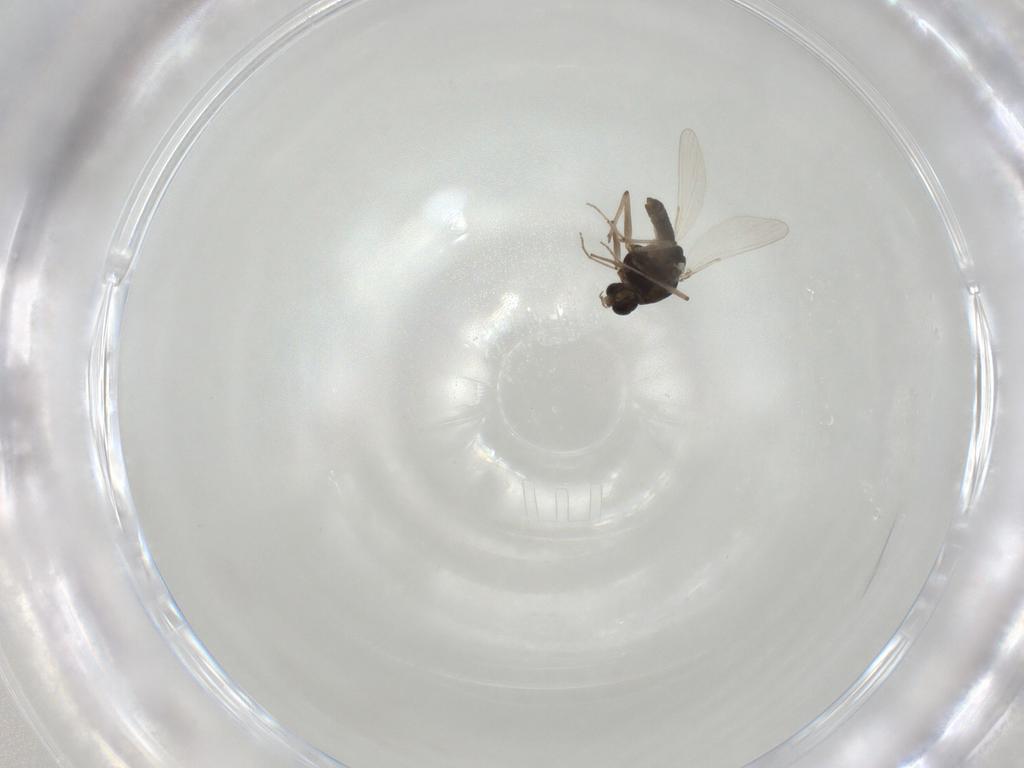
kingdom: Animalia
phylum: Arthropoda
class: Insecta
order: Diptera
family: Chironomidae
